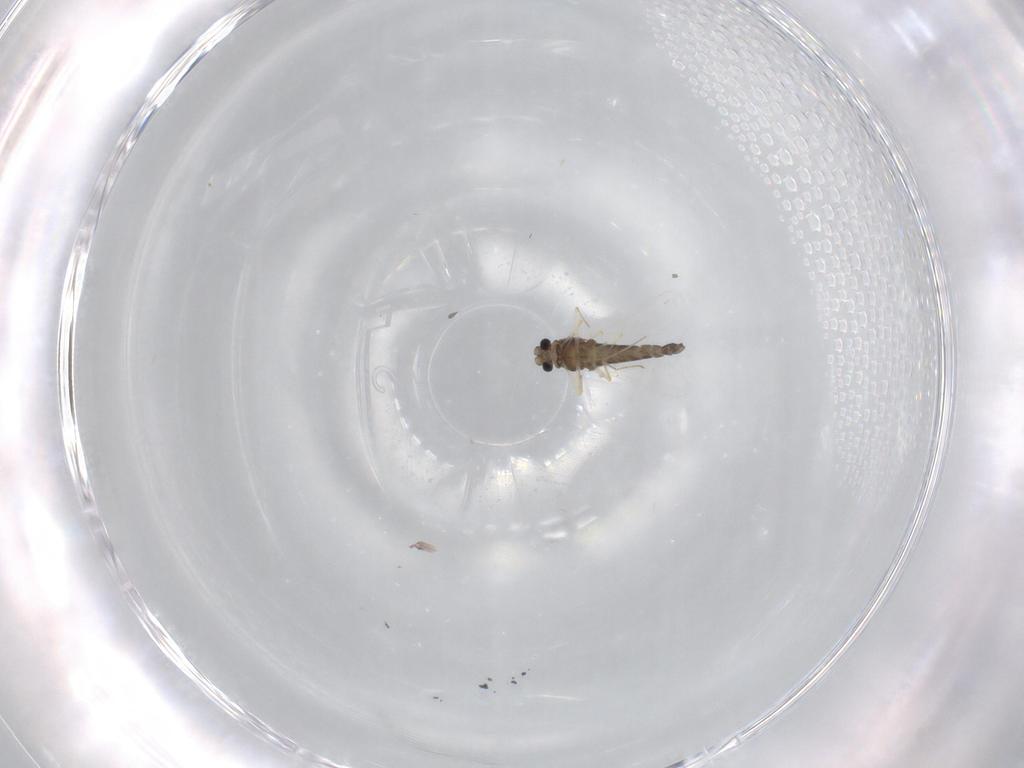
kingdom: Animalia
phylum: Arthropoda
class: Insecta
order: Diptera
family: Chironomidae
